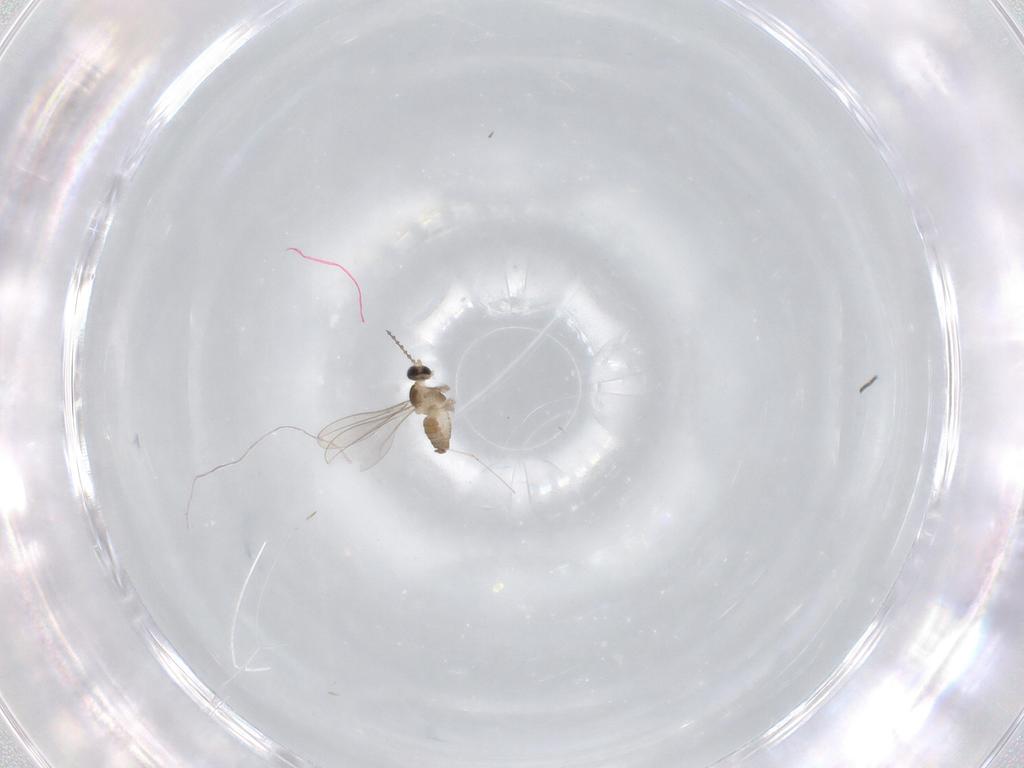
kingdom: Animalia
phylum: Arthropoda
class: Insecta
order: Diptera
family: Cecidomyiidae
